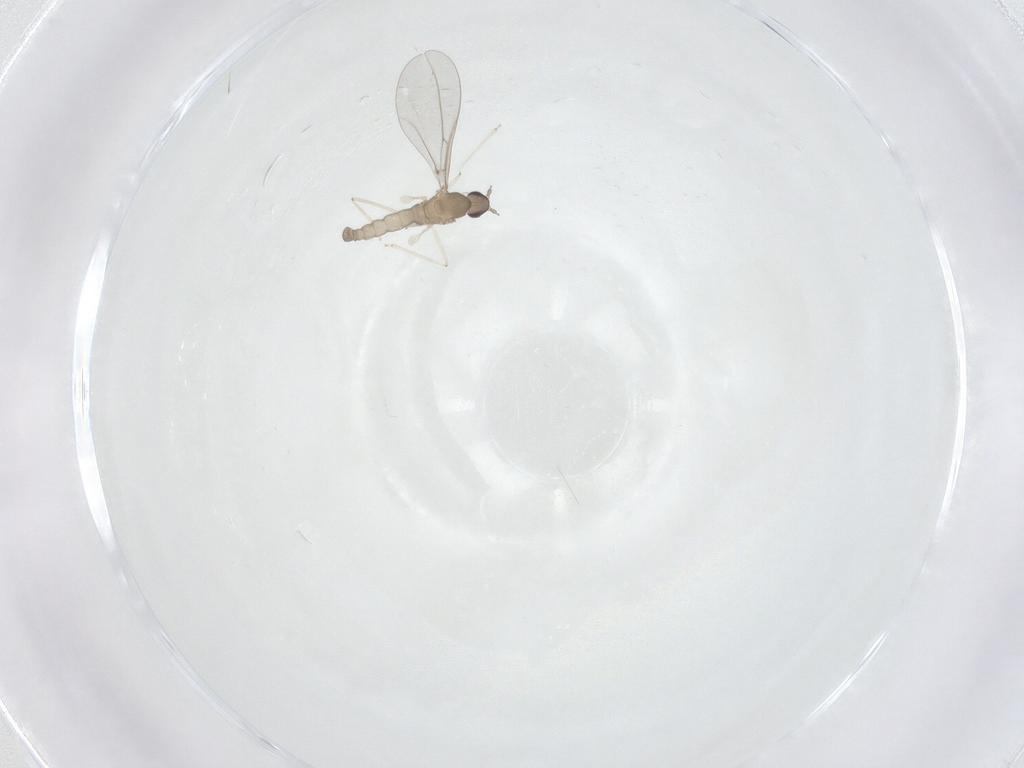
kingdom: Animalia
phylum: Arthropoda
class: Insecta
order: Diptera
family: Cecidomyiidae
